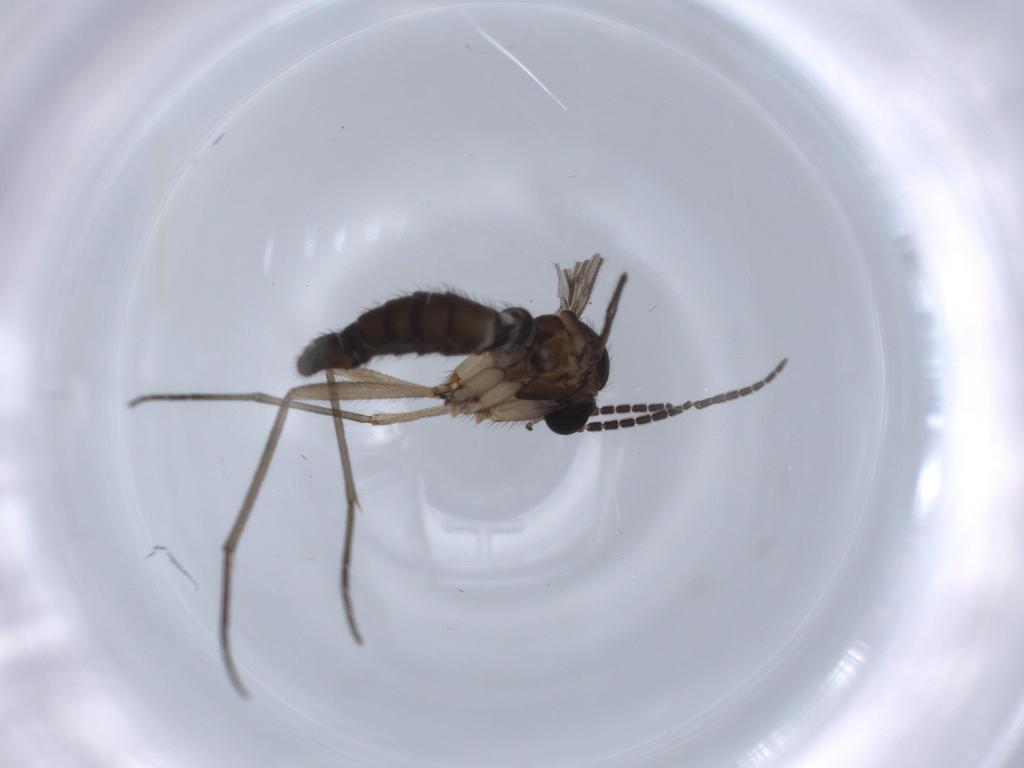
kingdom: Animalia
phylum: Arthropoda
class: Insecta
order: Diptera
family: Sciaridae
